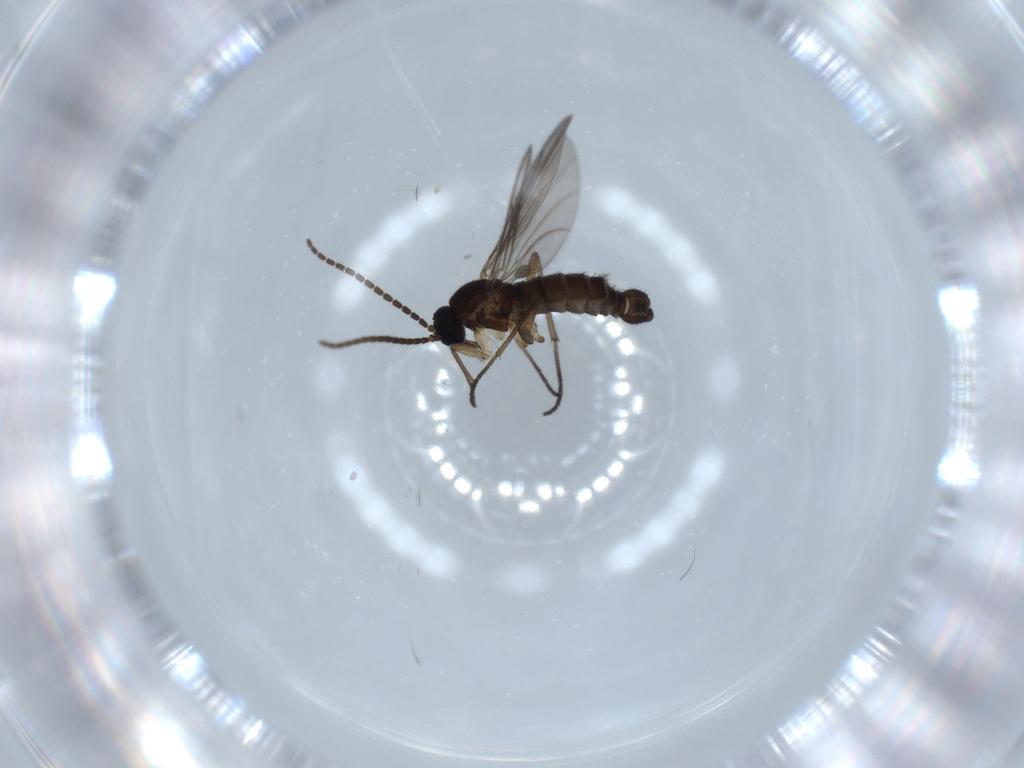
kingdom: Animalia
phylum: Arthropoda
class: Insecta
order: Diptera
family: Sciaridae
